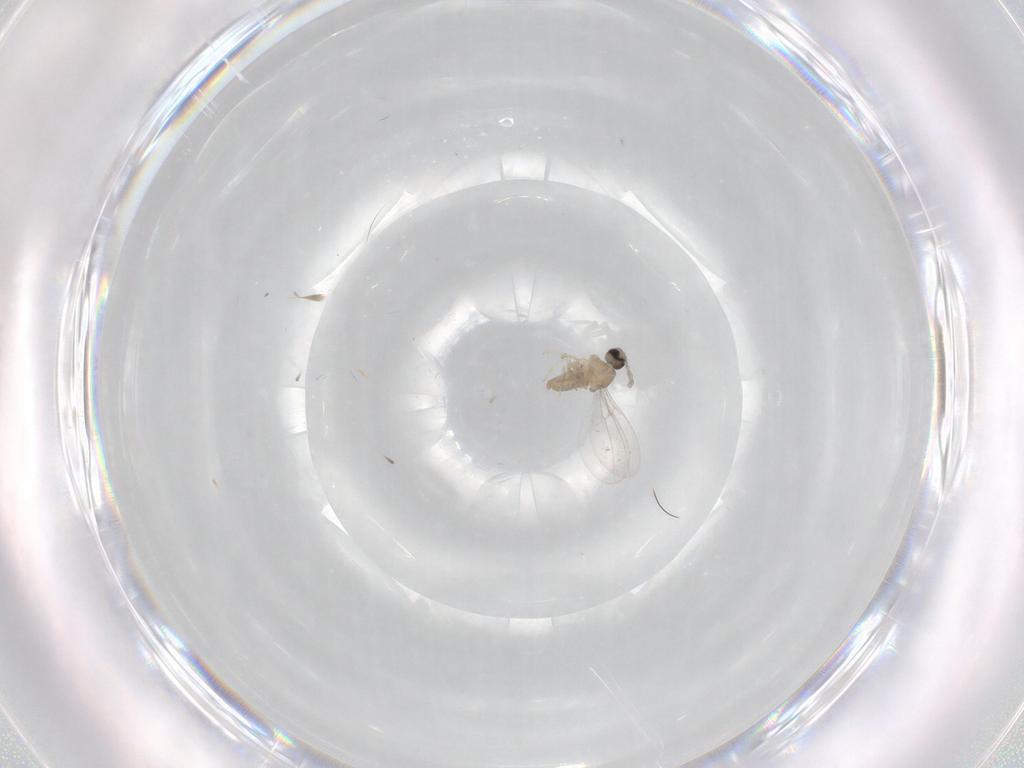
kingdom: Animalia
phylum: Arthropoda
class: Insecta
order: Diptera
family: Cecidomyiidae
